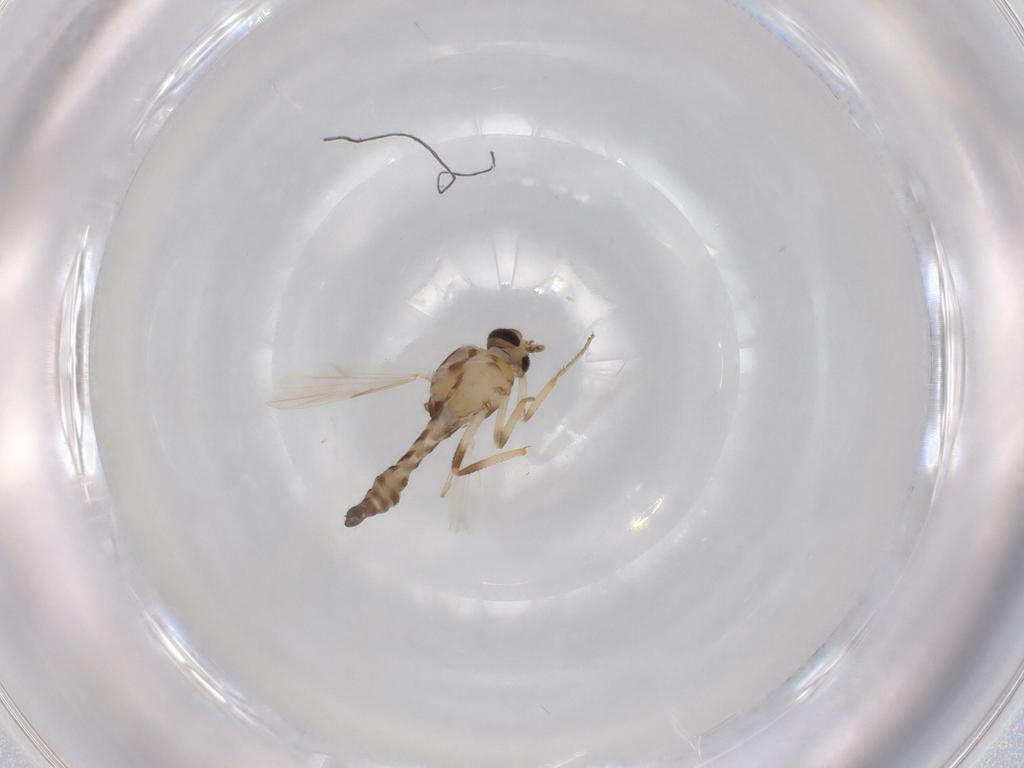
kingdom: Animalia
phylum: Arthropoda
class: Insecta
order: Diptera
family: Ceratopogonidae
